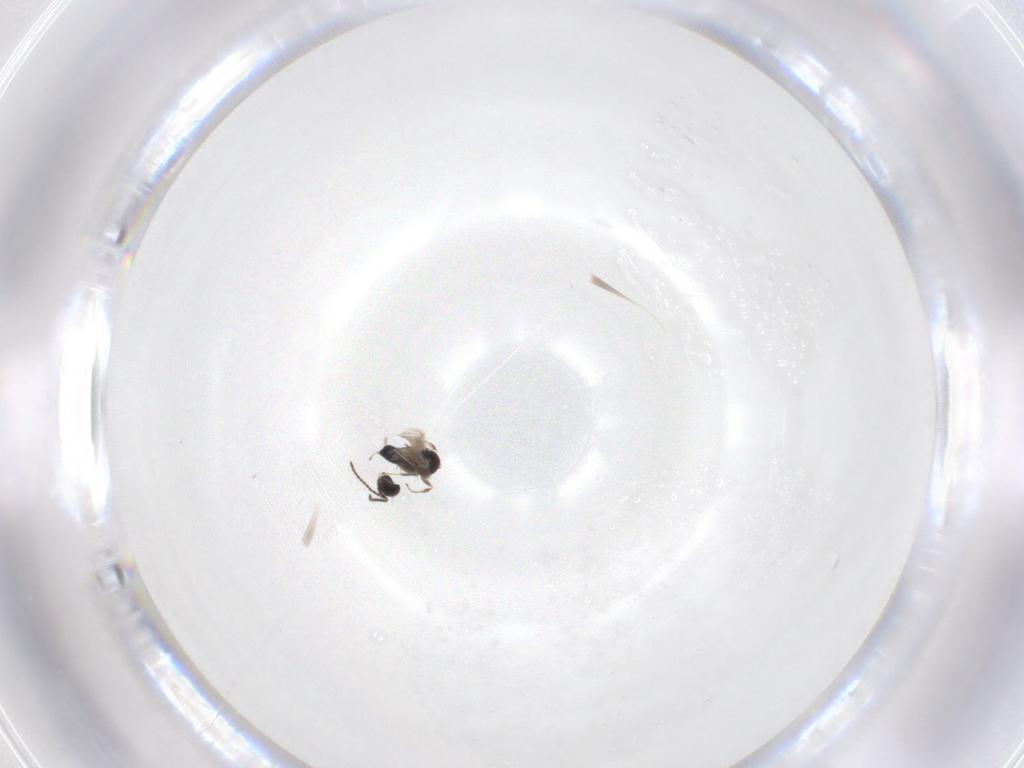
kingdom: Animalia
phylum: Arthropoda
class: Insecta
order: Hymenoptera
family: Scelionidae
